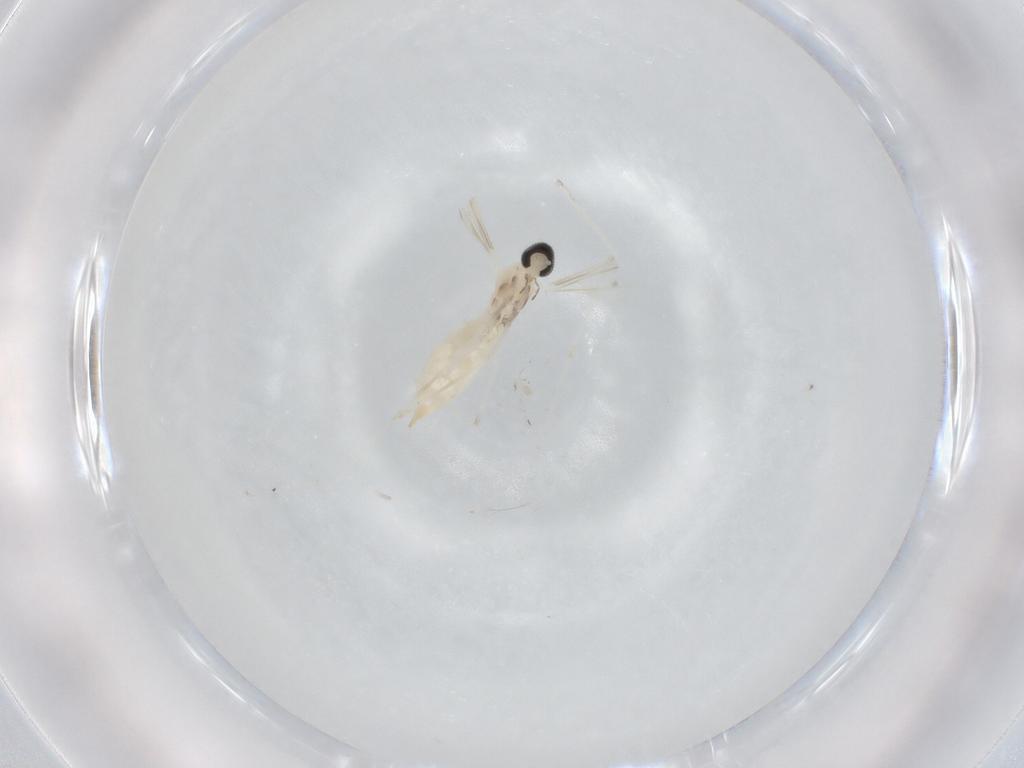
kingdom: Animalia
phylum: Arthropoda
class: Insecta
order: Diptera
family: Cecidomyiidae
